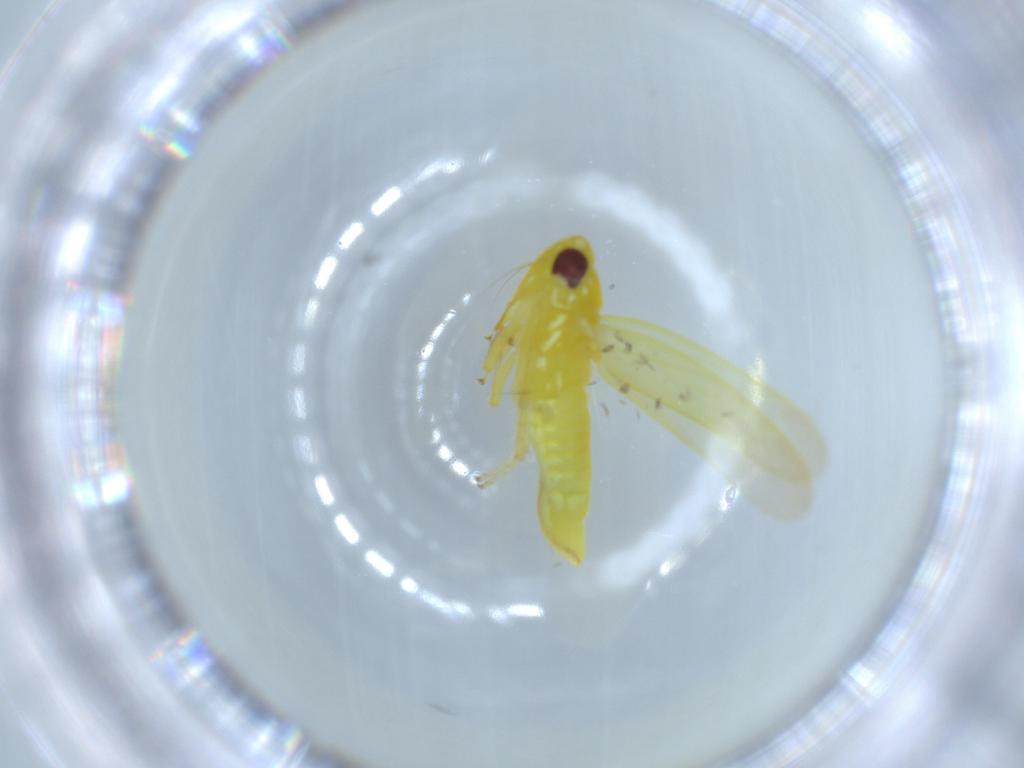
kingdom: Animalia
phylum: Arthropoda
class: Insecta
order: Hemiptera
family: Cicadellidae
